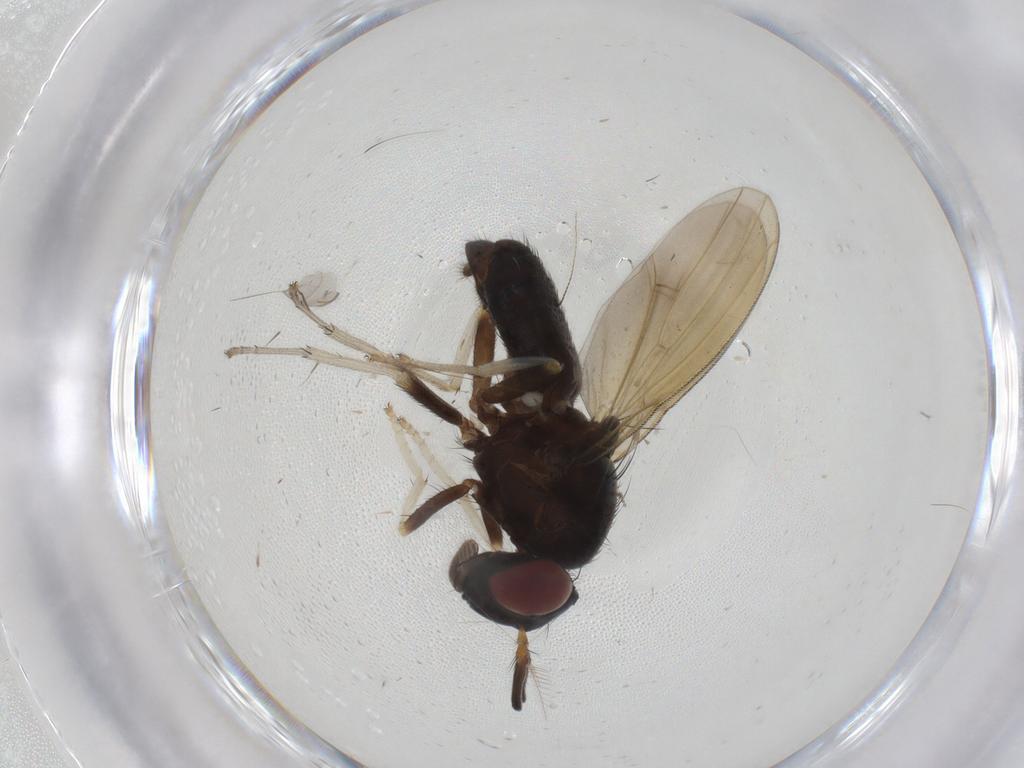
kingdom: Animalia
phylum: Arthropoda
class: Insecta
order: Diptera
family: Lauxaniidae
